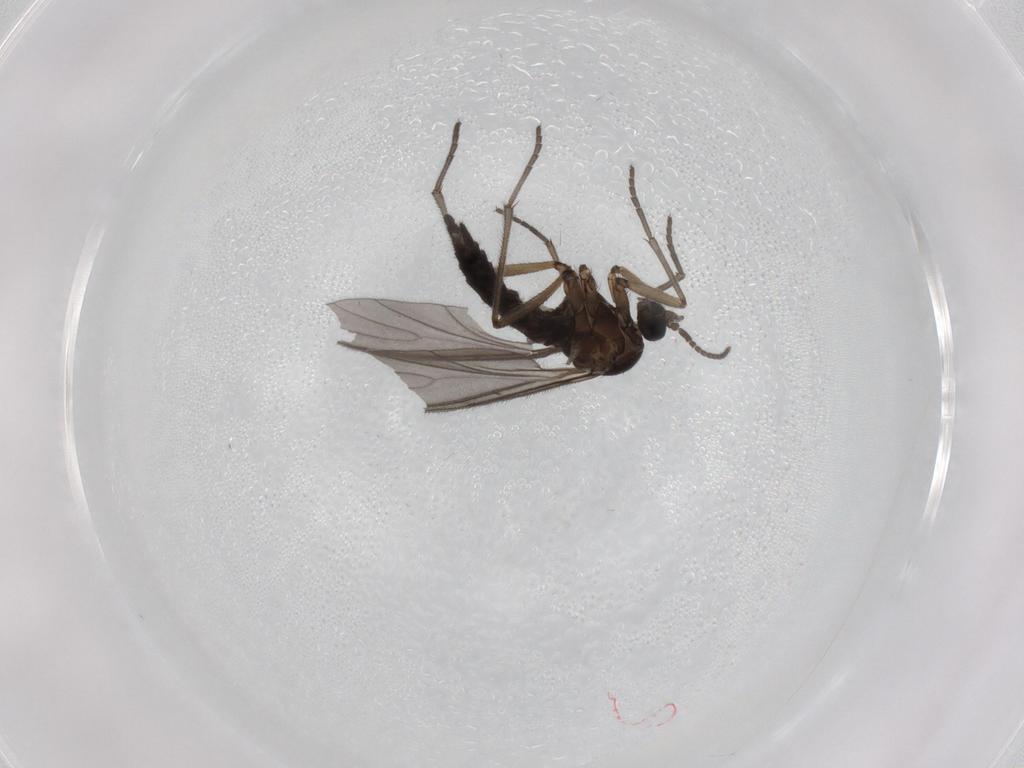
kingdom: Animalia
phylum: Arthropoda
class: Insecta
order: Diptera
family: Sciaridae
